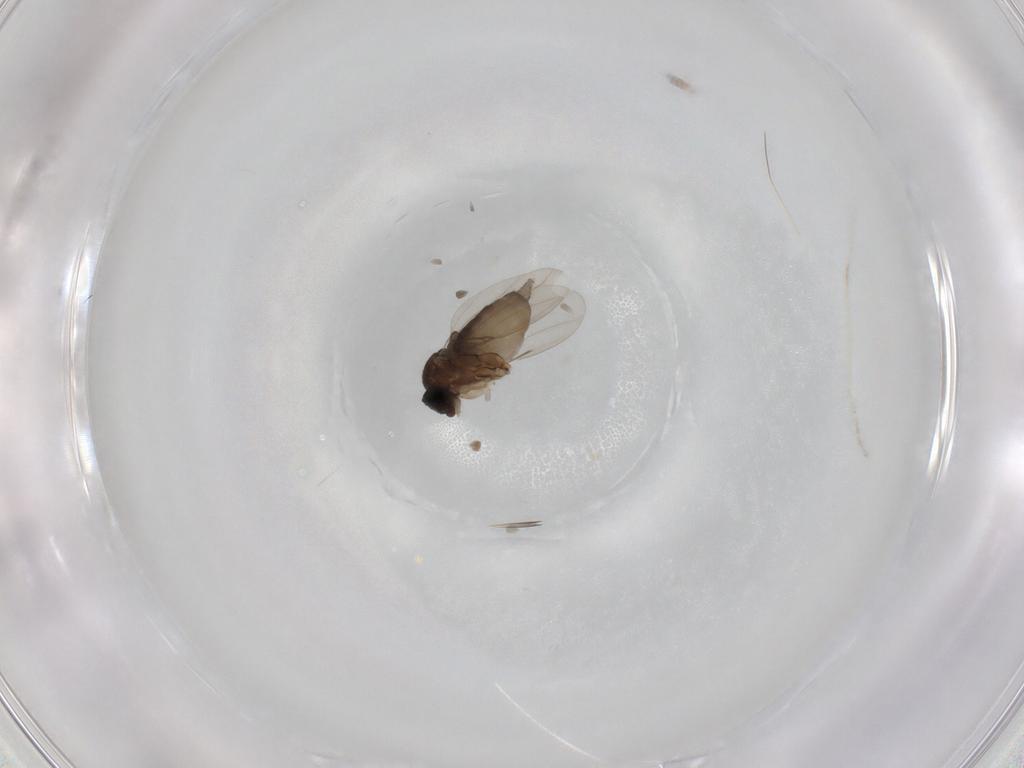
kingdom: Animalia
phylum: Arthropoda
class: Insecta
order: Diptera
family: Phoridae
